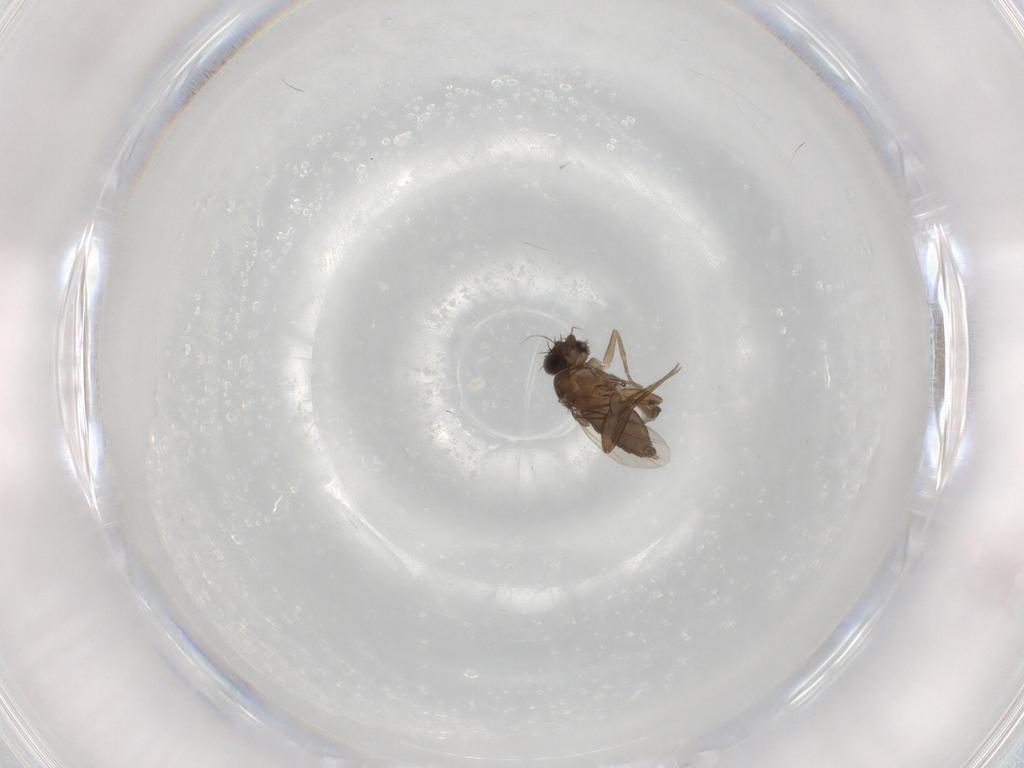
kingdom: Animalia
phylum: Arthropoda
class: Insecta
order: Diptera
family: Phoridae
